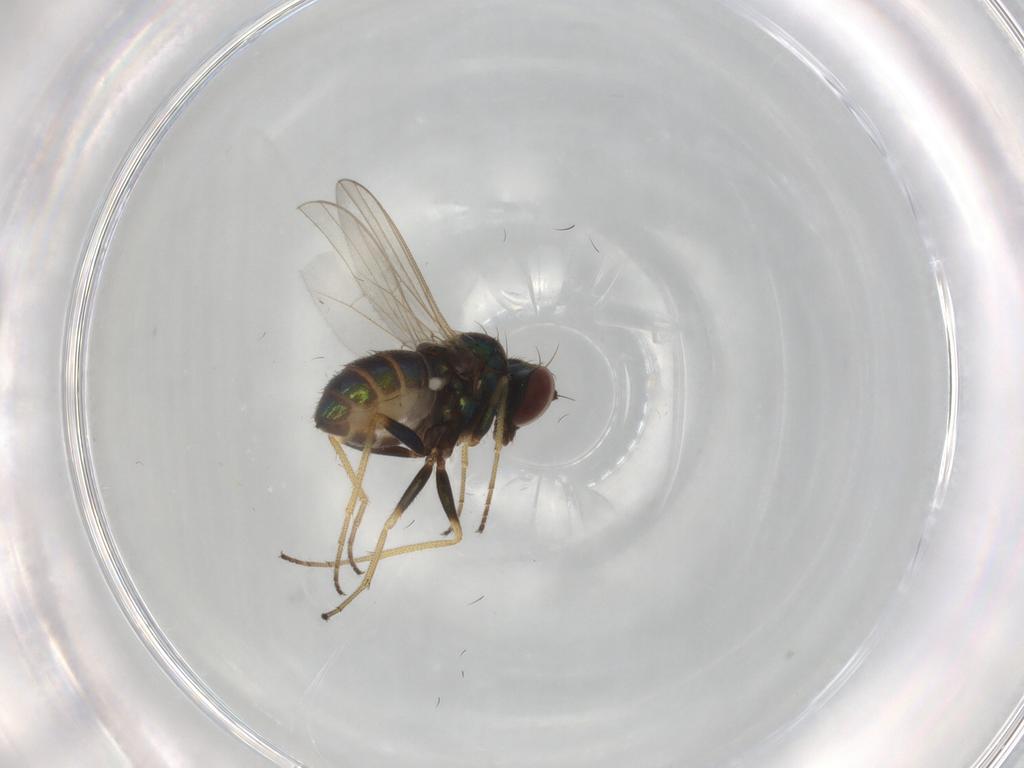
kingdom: Animalia
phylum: Arthropoda
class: Insecta
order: Diptera
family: Dolichopodidae
